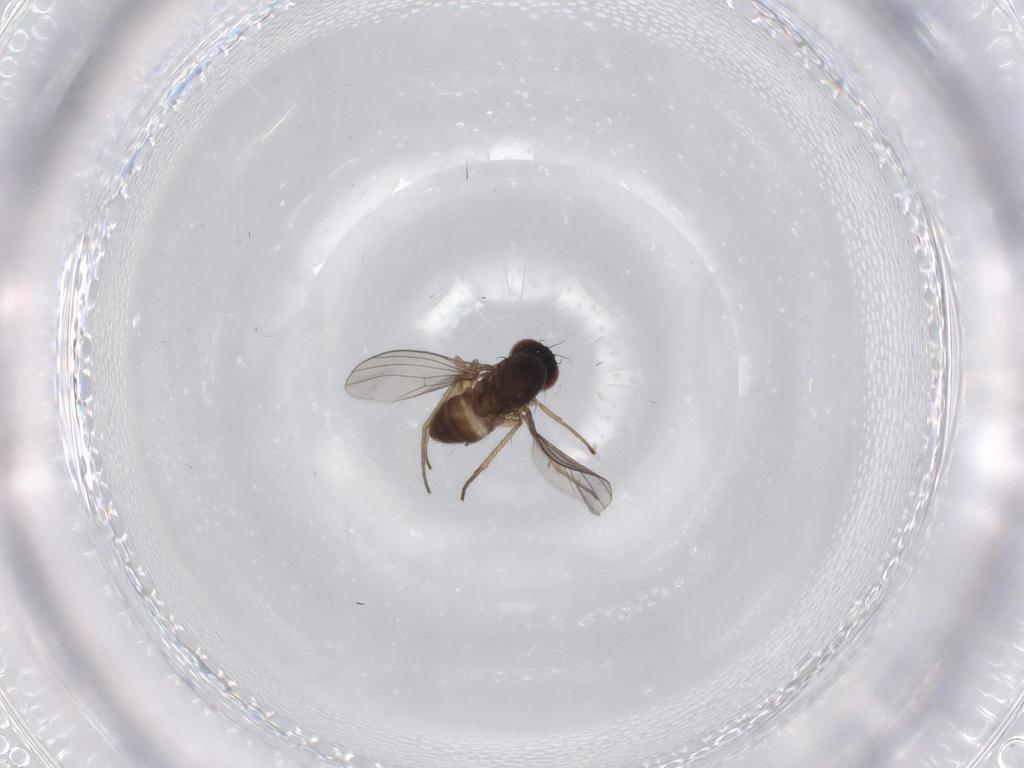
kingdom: Animalia
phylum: Arthropoda
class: Insecta
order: Diptera
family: Dolichopodidae
